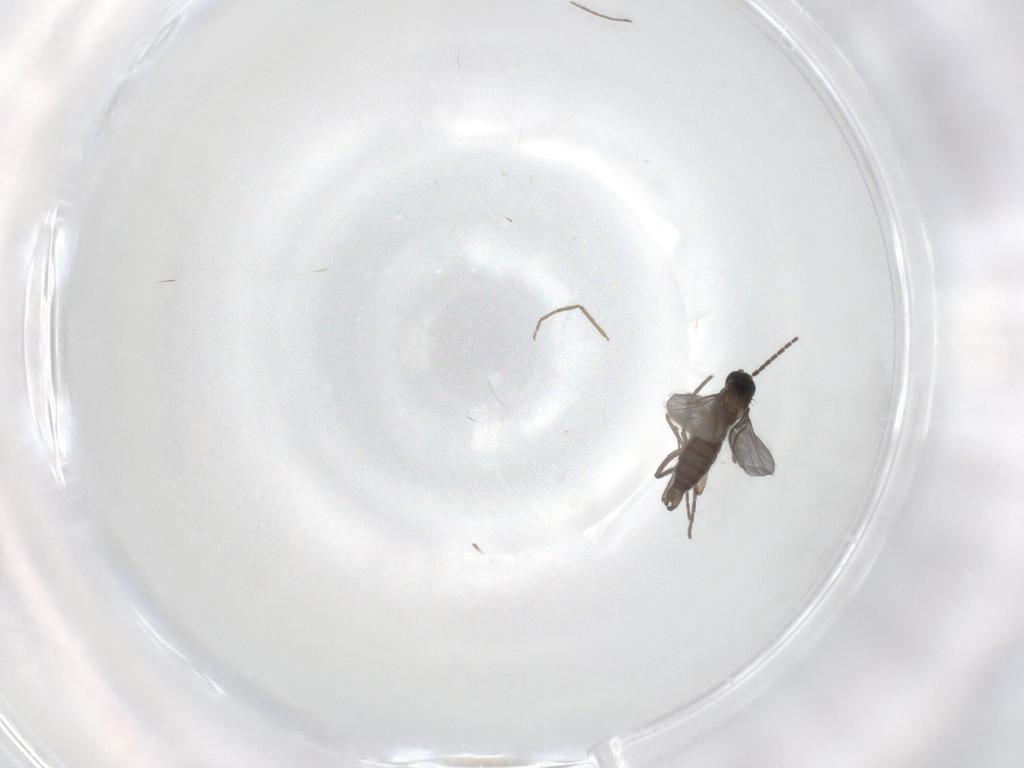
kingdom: Animalia
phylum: Arthropoda
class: Insecta
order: Diptera
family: Sciaridae
